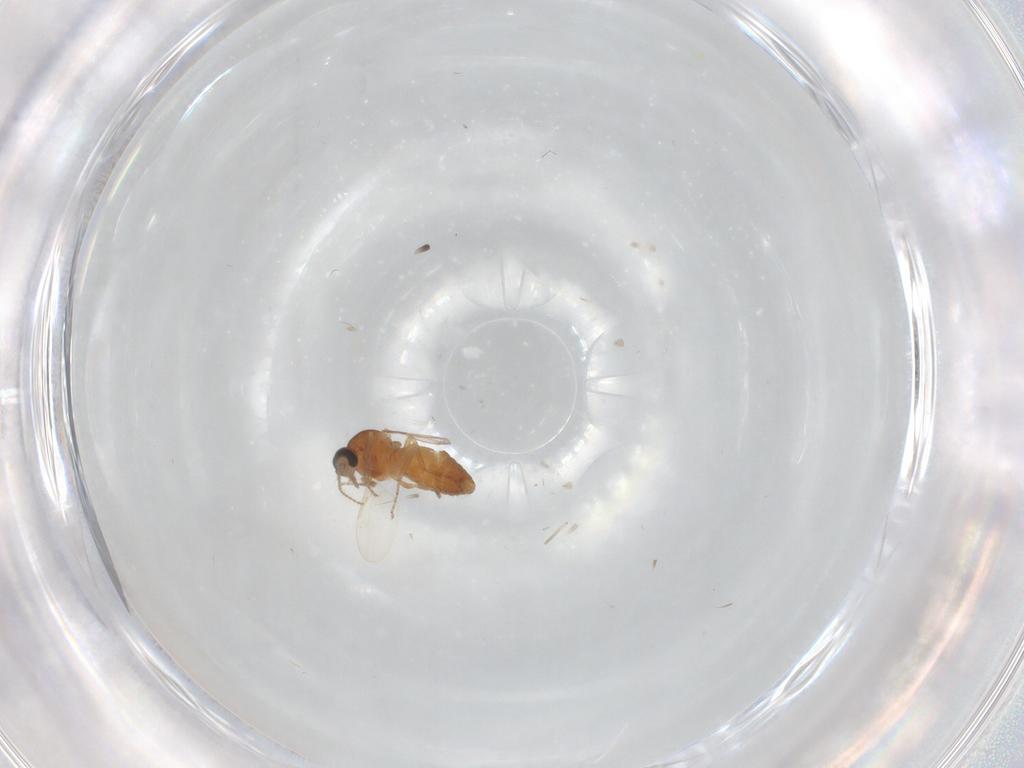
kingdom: Animalia
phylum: Arthropoda
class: Insecta
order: Diptera
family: Ceratopogonidae
